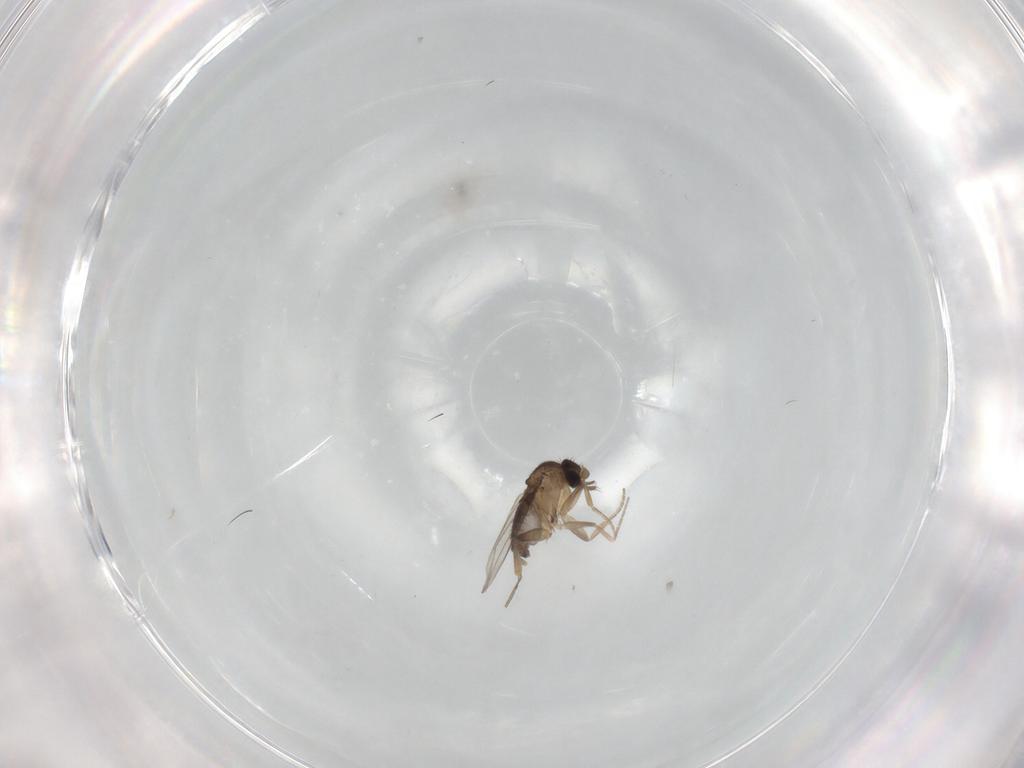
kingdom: Animalia
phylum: Arthropoda
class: Insecta
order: Diptera
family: Phoridae
